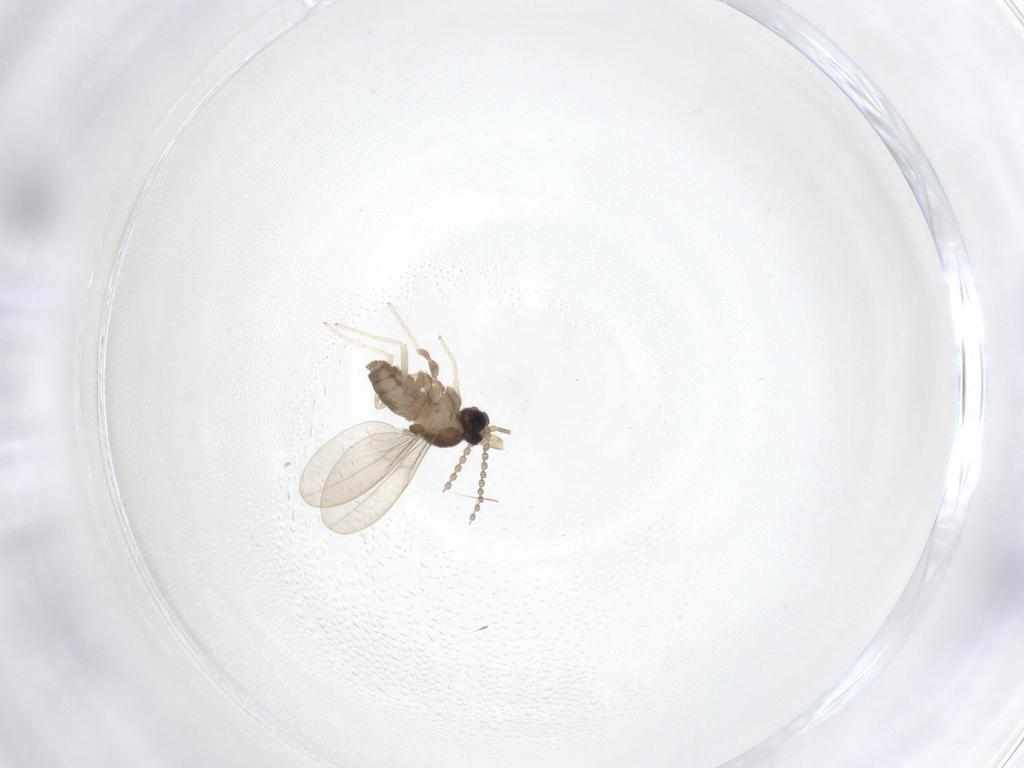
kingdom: Animalia
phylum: Arthropoda
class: Insecta
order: Diptera
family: Cecidomyiidae
